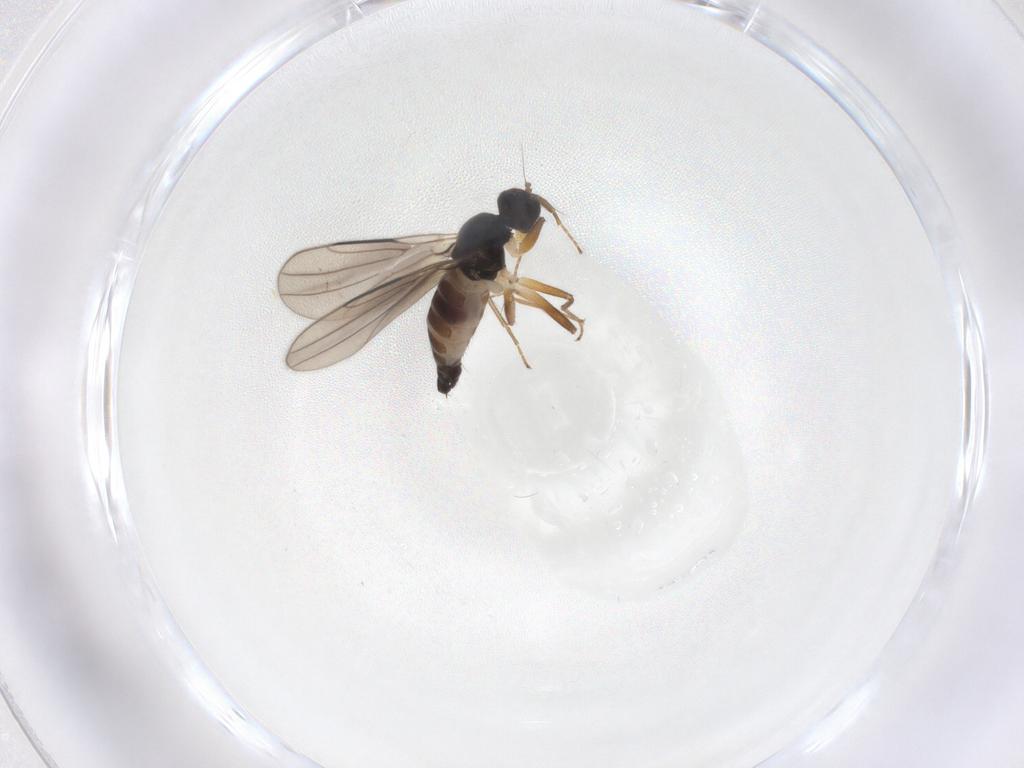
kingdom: Animalia
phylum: Arthropoda
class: Insecta
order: Diptera
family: Hybotidae
